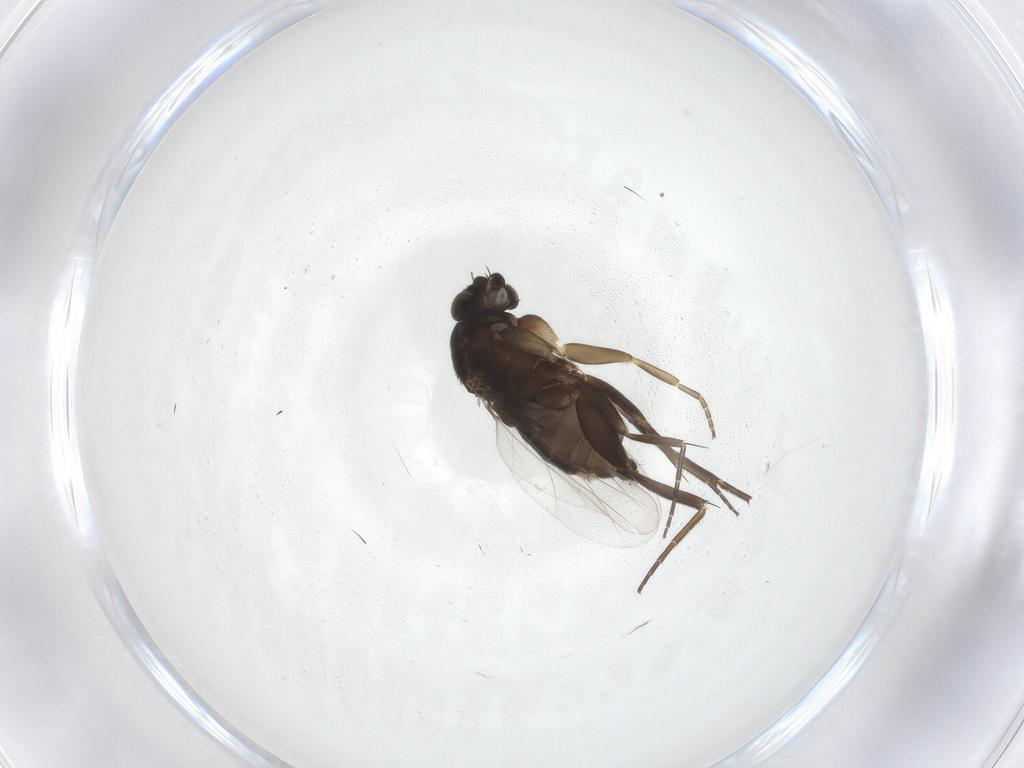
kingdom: Animalia
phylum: Arthropoda
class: Insecta
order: Diptera
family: Phoridae
